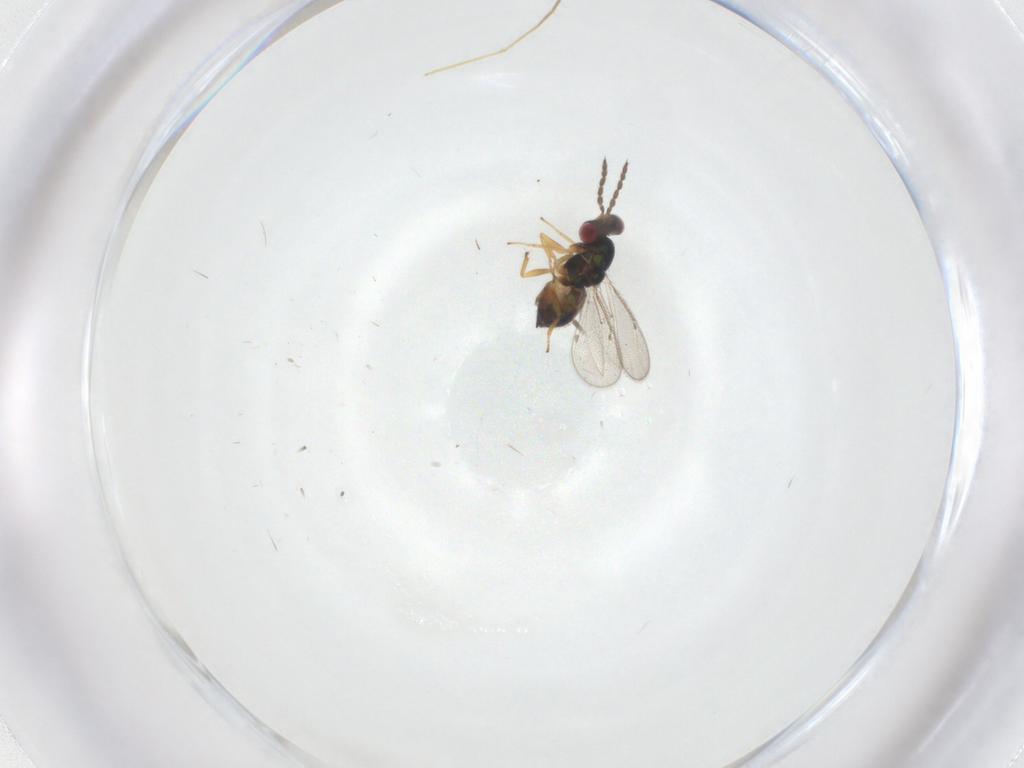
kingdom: Animalia
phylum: Arthropoda
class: Insecta
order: Hymenoptera
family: Eulophidae
